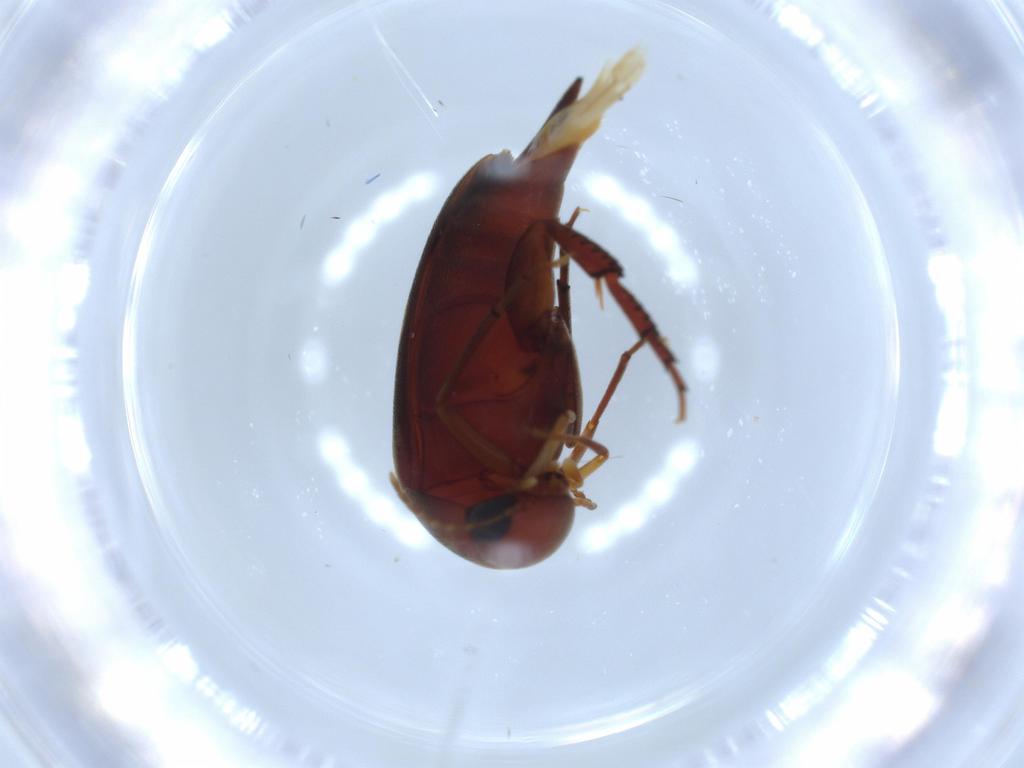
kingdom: Animalia
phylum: Arthropoda
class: Insecta
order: Coleoptera
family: Mordellidae
